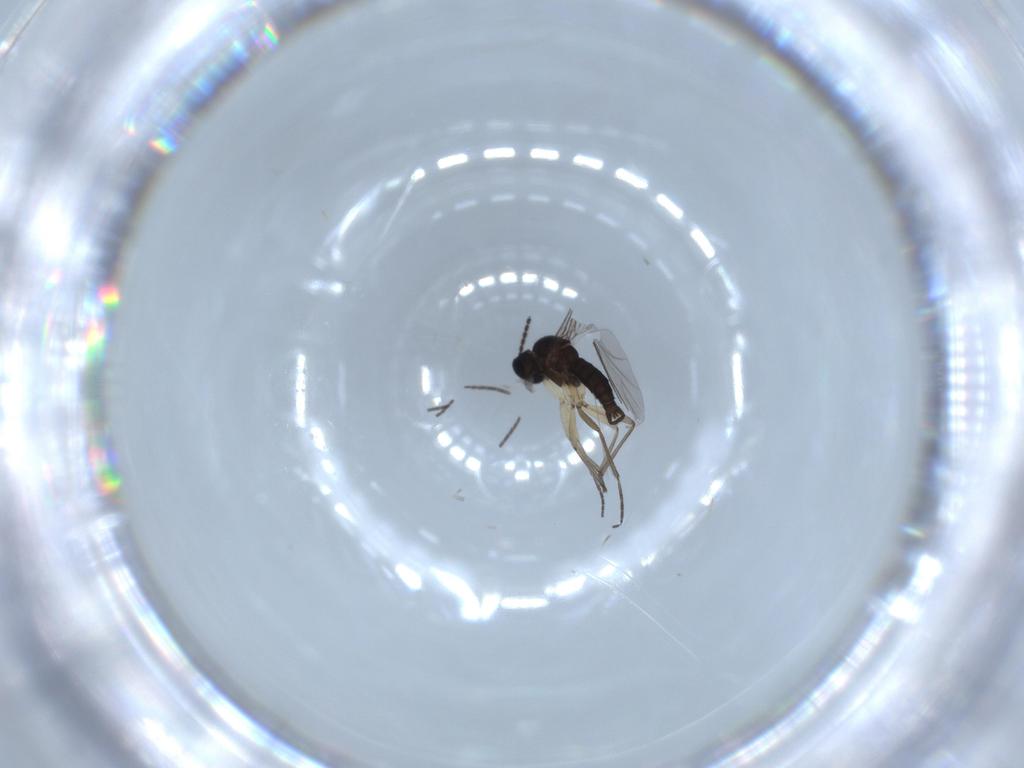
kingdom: Animalia
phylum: Arthropoda
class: Insecta
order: Diptera
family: Sciaridae
